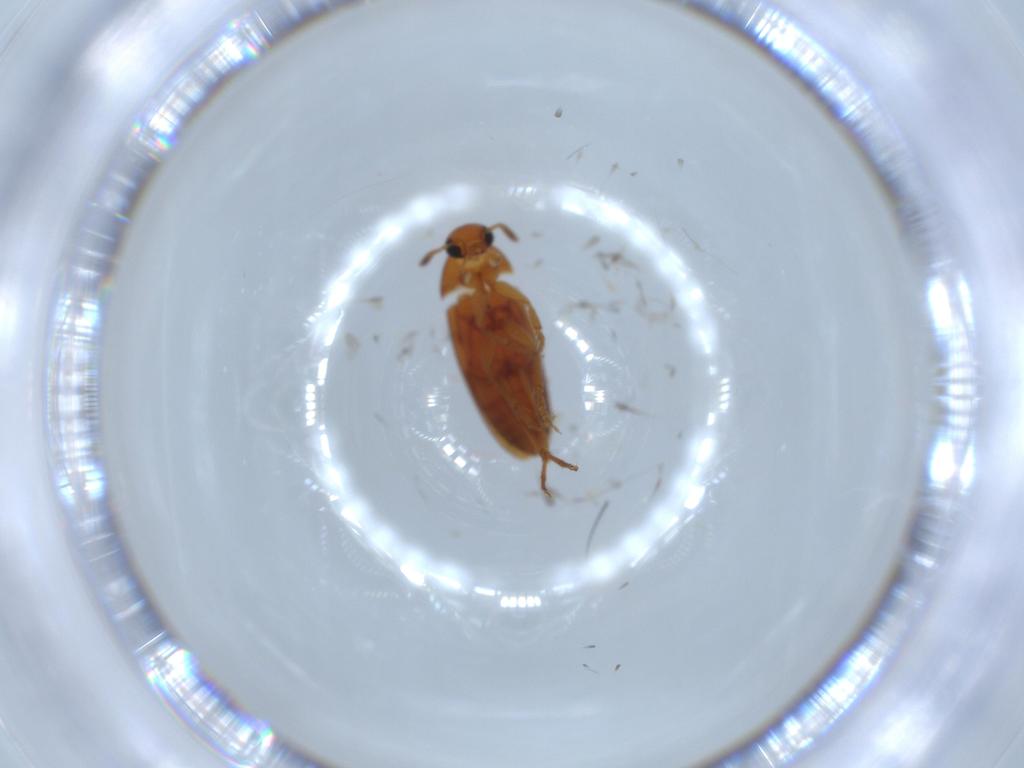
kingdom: Animalia
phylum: Arthropoda
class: Insecta
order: Coleoptera
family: Scraptiidae
